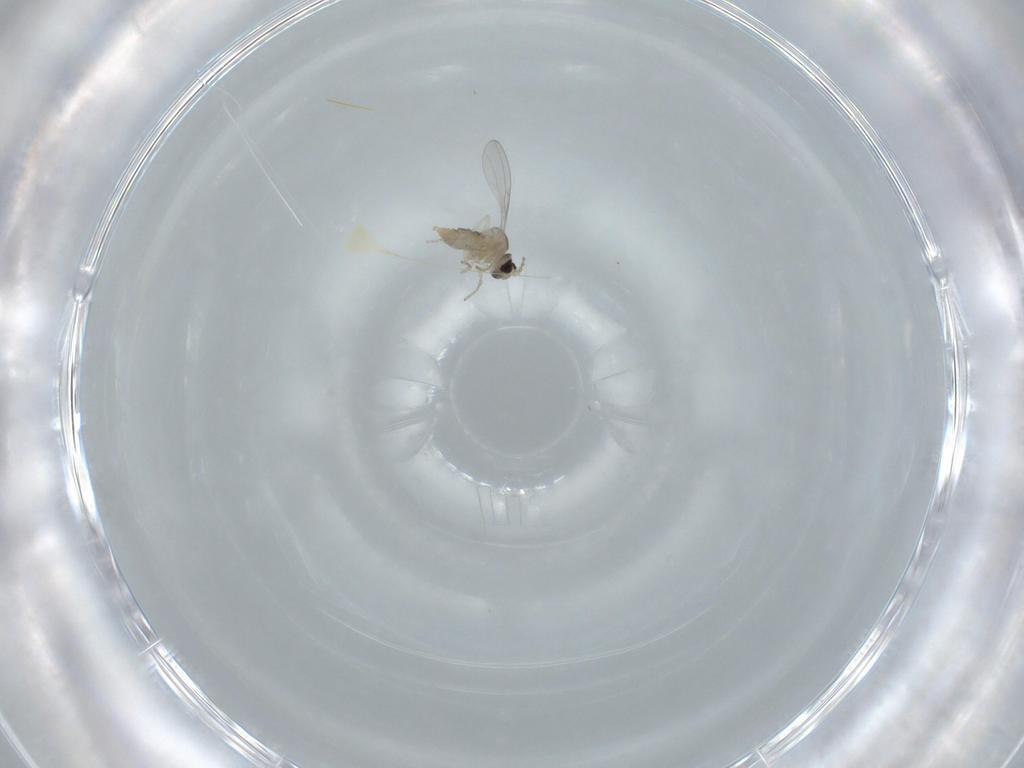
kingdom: Animalia
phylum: Arthropoda
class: Insecta
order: Diptera
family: Cecidomyiidae
